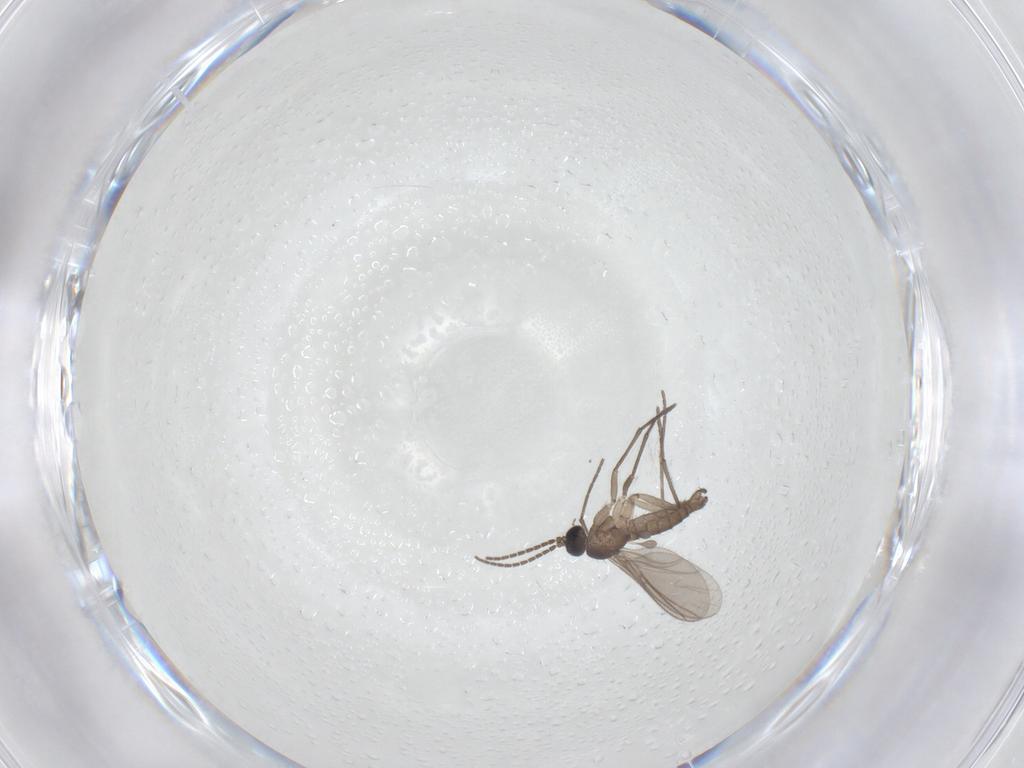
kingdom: Animalia
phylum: Arthropoda
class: Insecta
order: Diptera
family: Sciaridae
